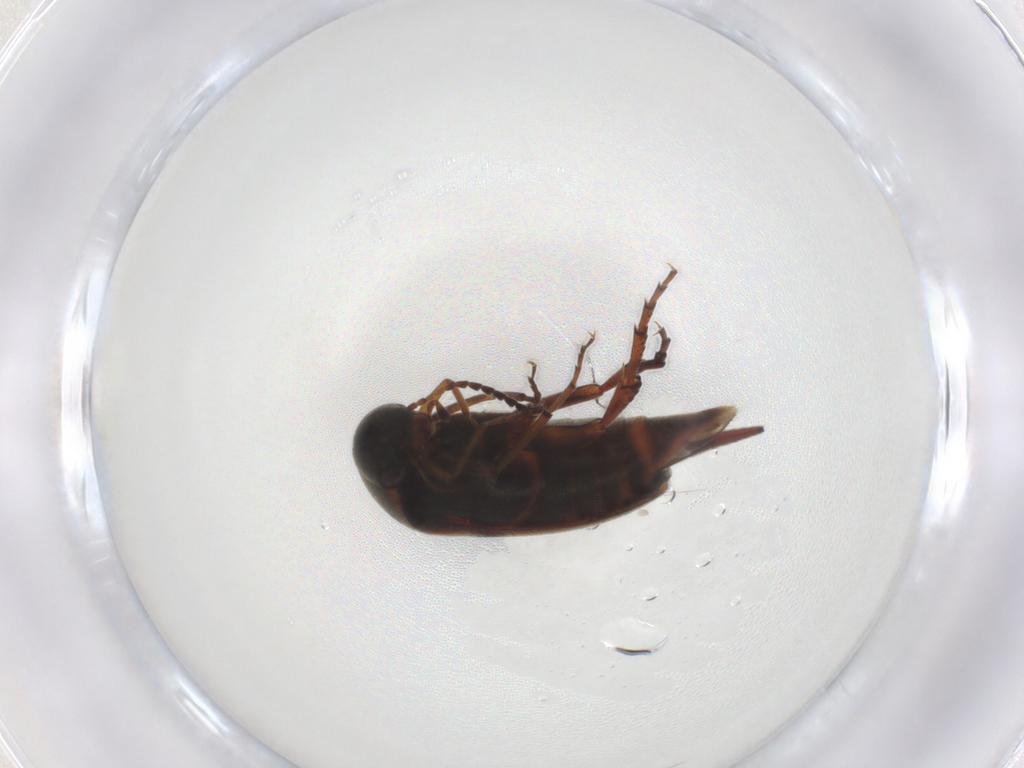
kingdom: Animalia
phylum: Arthropoda
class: Insecta
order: Coleoptera
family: Mordellidae
